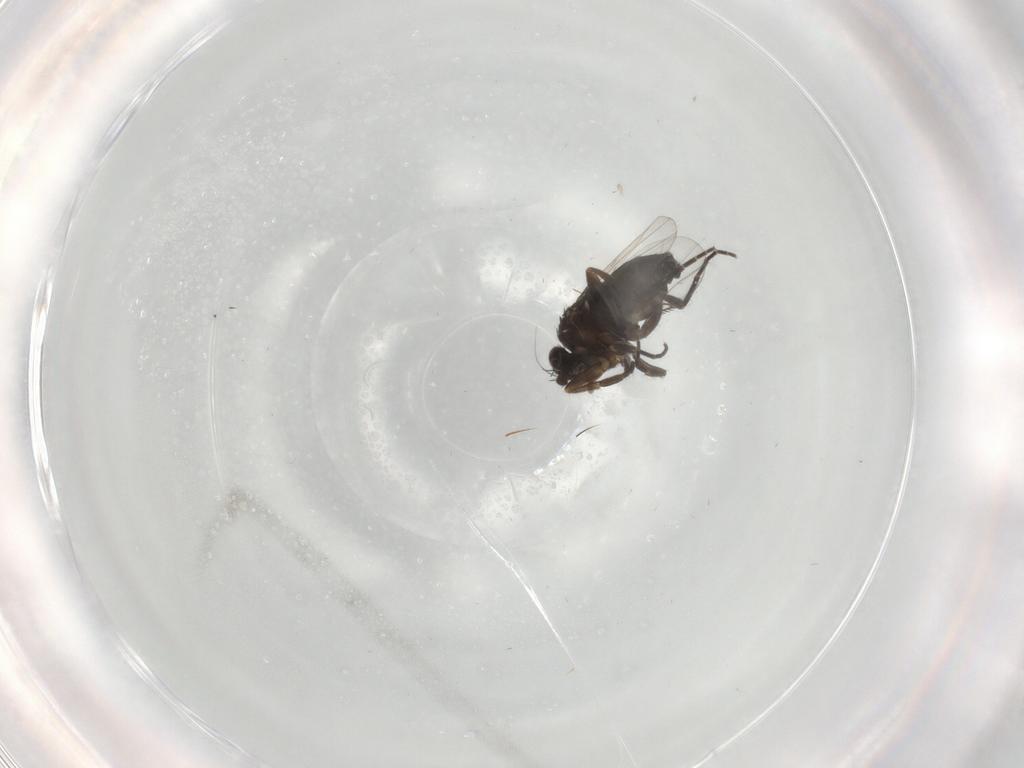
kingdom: Animalia
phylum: Arthropoda
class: Insecta
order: Diptera
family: Phoridae
